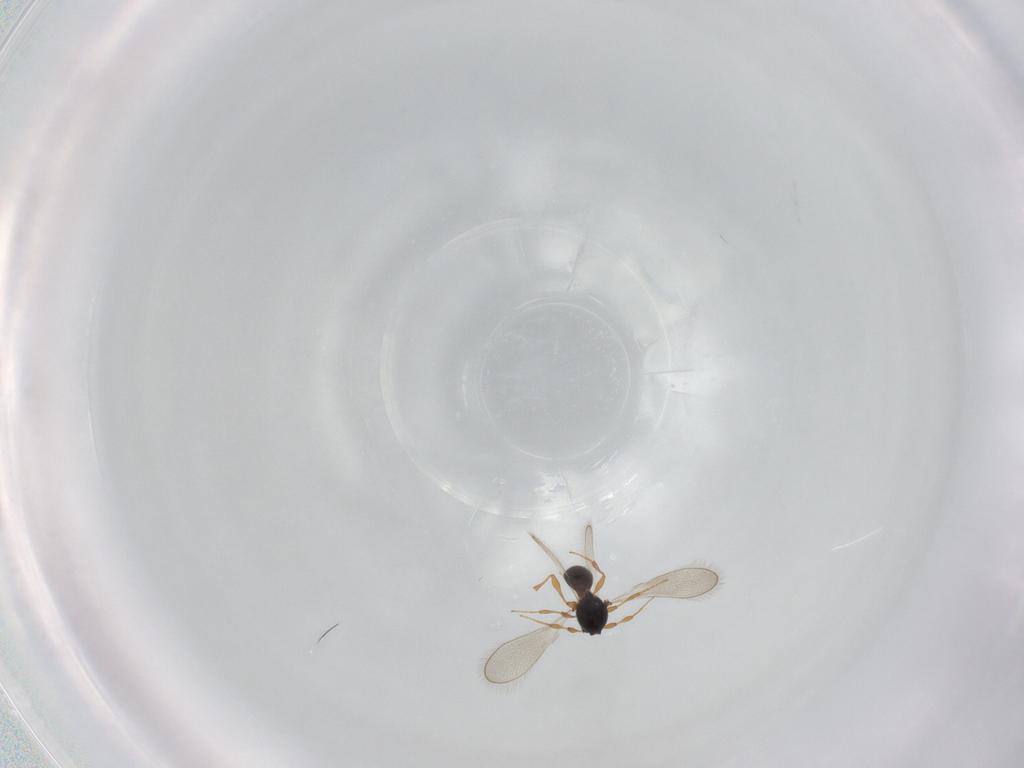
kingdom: Animalia
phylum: Arthropoda
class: Insecta
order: Hymenoptera
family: Platygastridae
